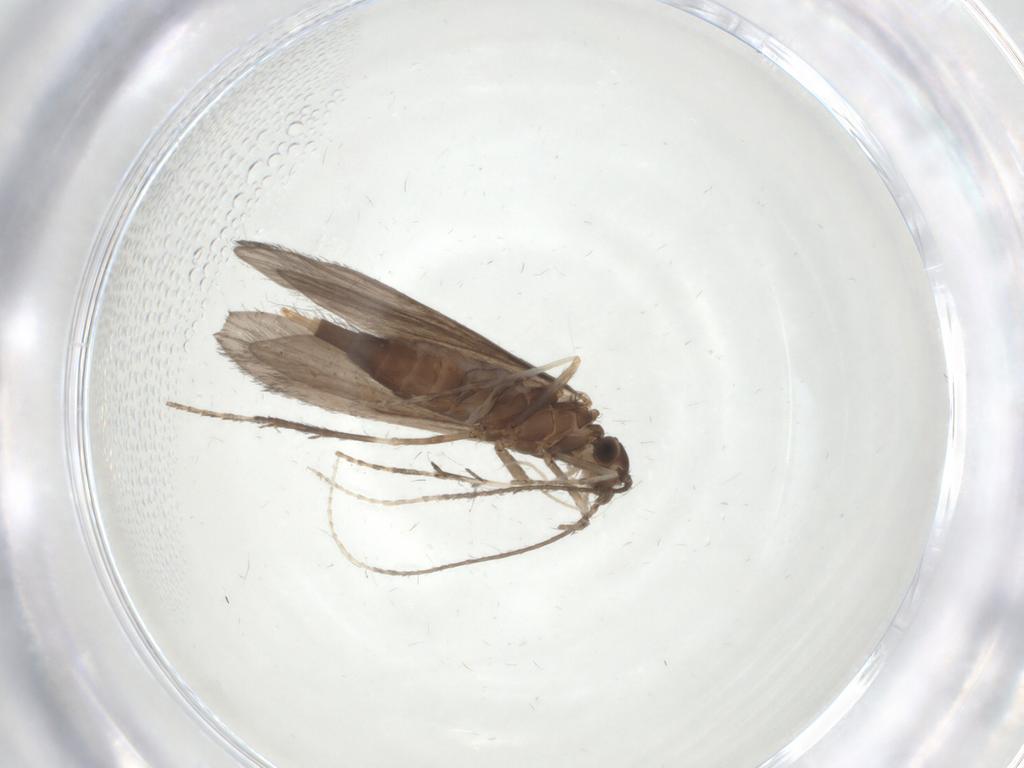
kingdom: Animalia
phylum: Arthropoda
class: Insecta
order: Trichoptera
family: Xiphocentronidae
